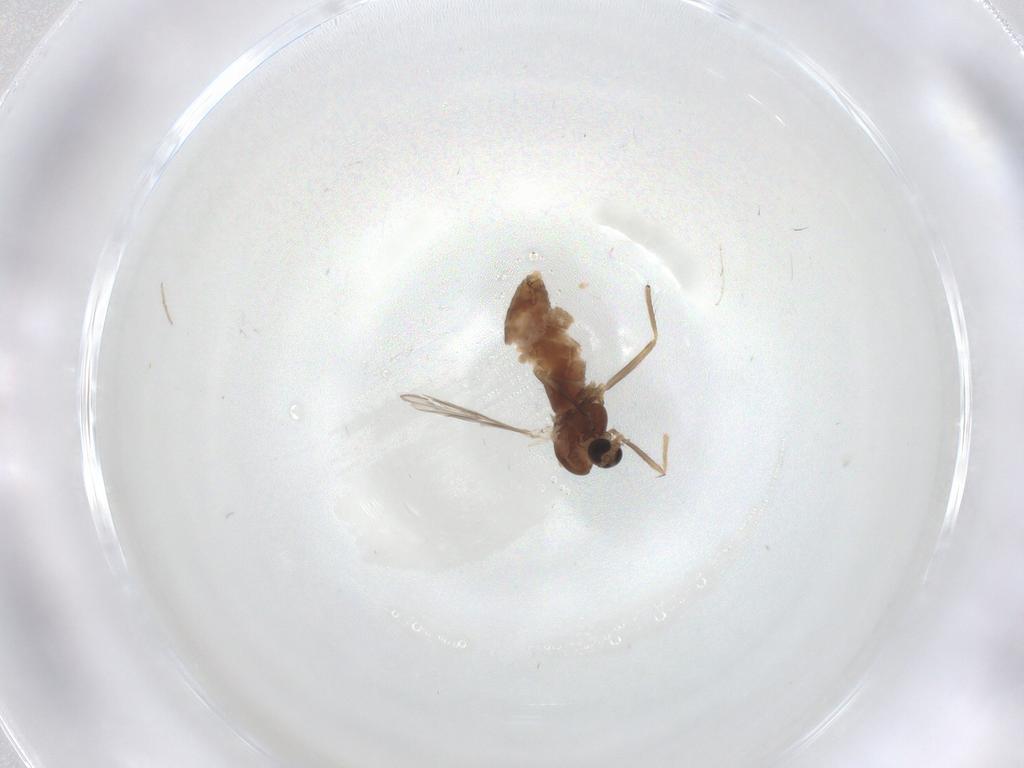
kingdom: Animalia
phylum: Arthropoda
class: Insecta
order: Diptera
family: Chironomidae
